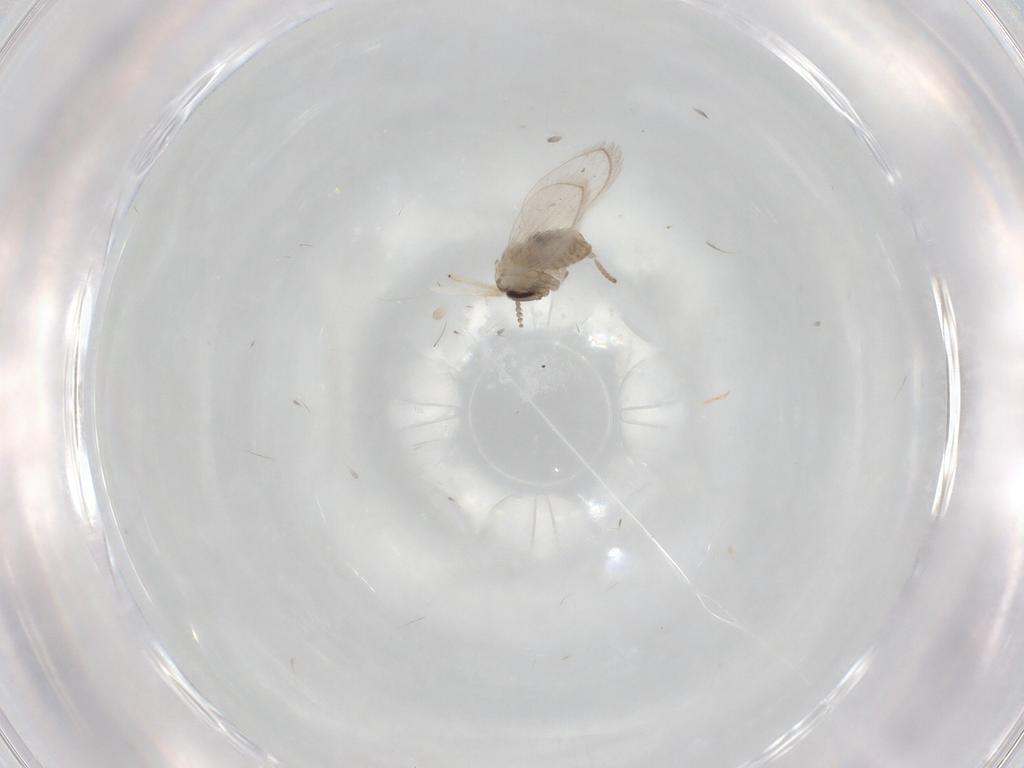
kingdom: Animalia
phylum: Arthropoda
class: Insecta
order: Diptera
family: Psychodidae
